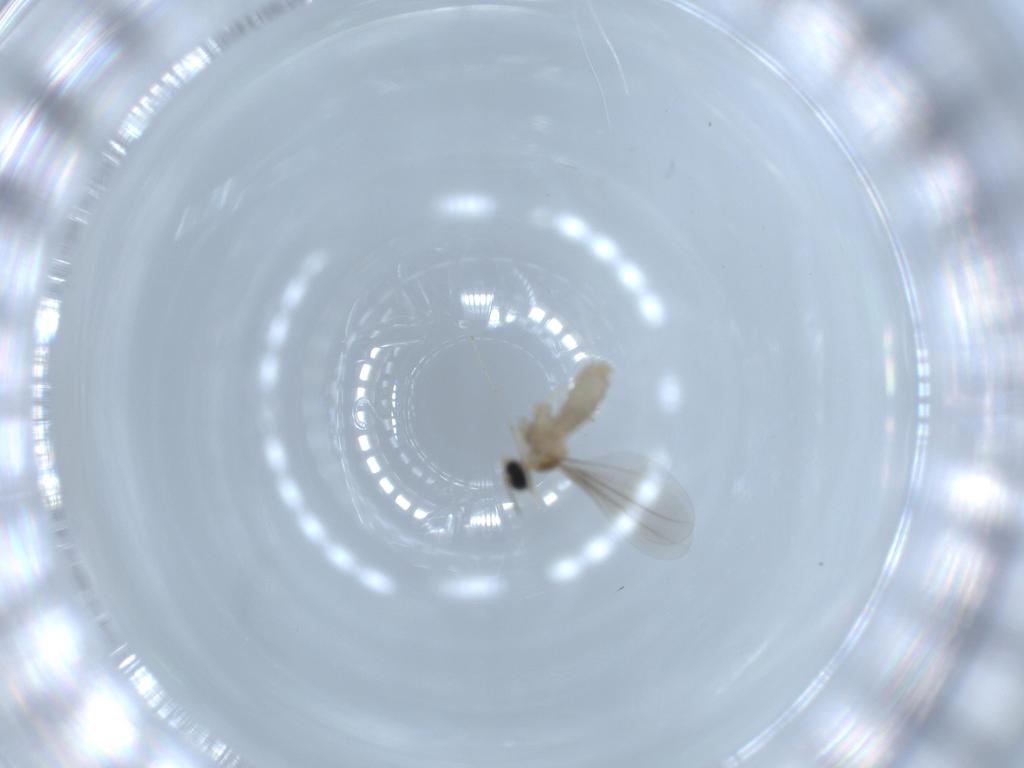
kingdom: Animalia
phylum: Arthropoda
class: Insecta
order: Diptera
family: Cecidomyiidae
